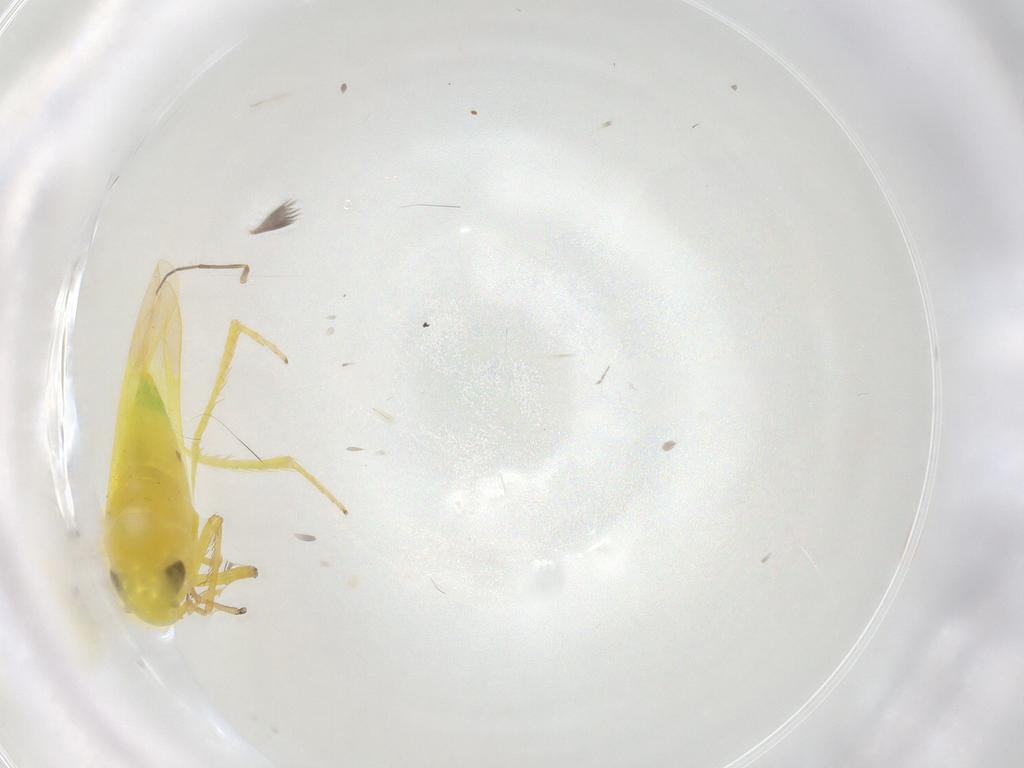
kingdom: Animalia
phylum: Arthropoda
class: Insecta
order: Hemiptera
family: Cicadellidae
